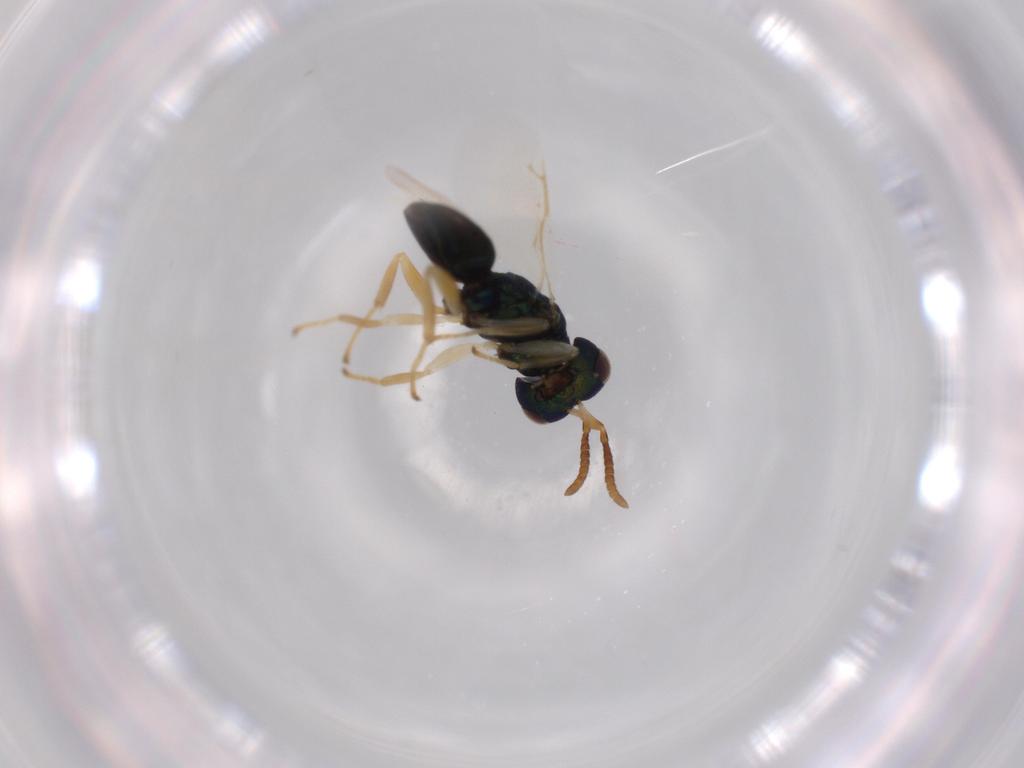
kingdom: Animalia
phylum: Arthropoda
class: Insecta
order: Hymenoptera
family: Pteromalidae
